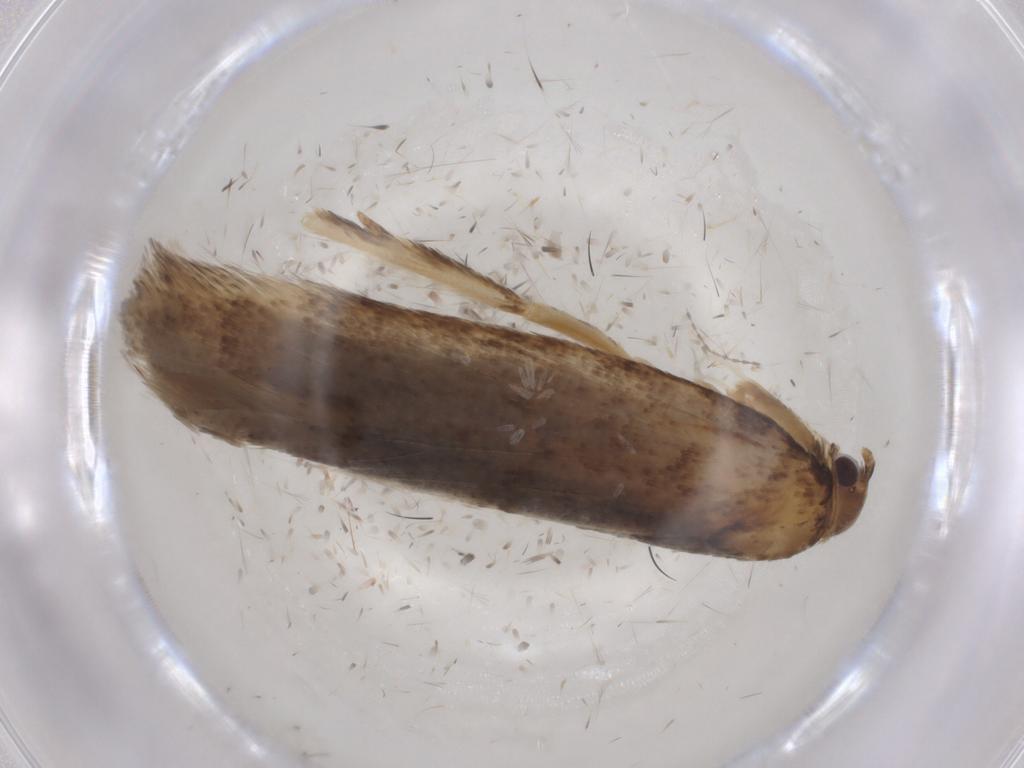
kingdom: Animalia
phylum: Arthropoda
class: Insecta
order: Lepidoptera
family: Gelechiidae
